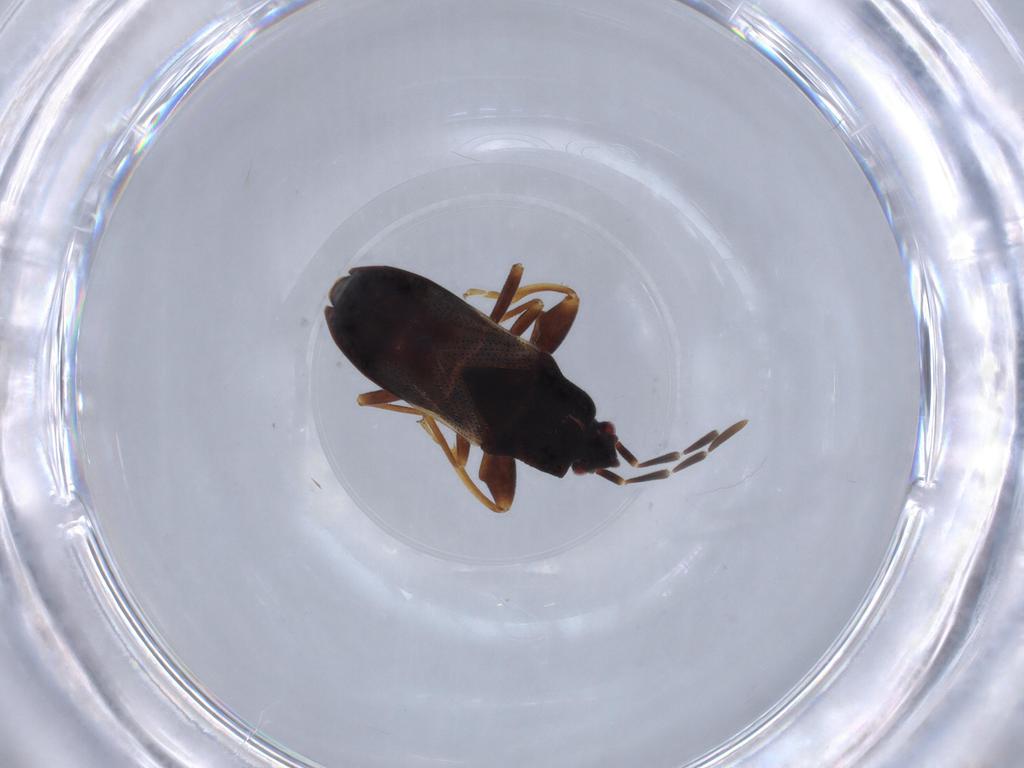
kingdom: Animalia
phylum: Arthropoda
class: Insecta
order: Hemiptera
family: Rhyparochromidae
